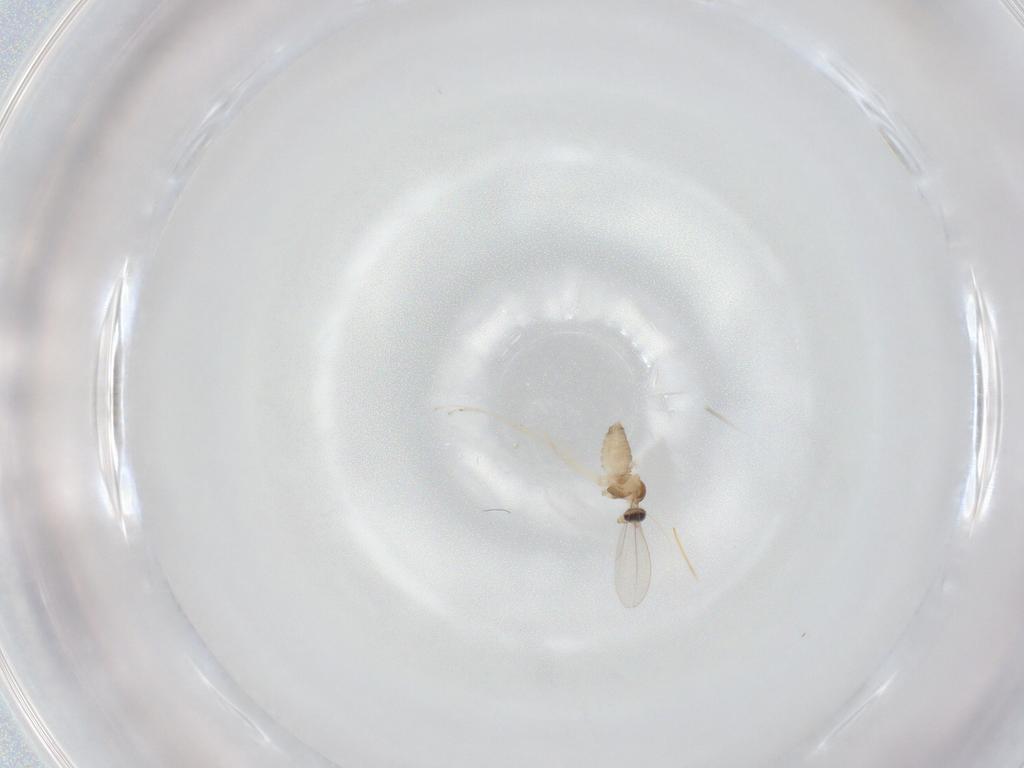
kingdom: Animalia
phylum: Arthropoda
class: Insecta
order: Diptera
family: Cecidomyiidae
